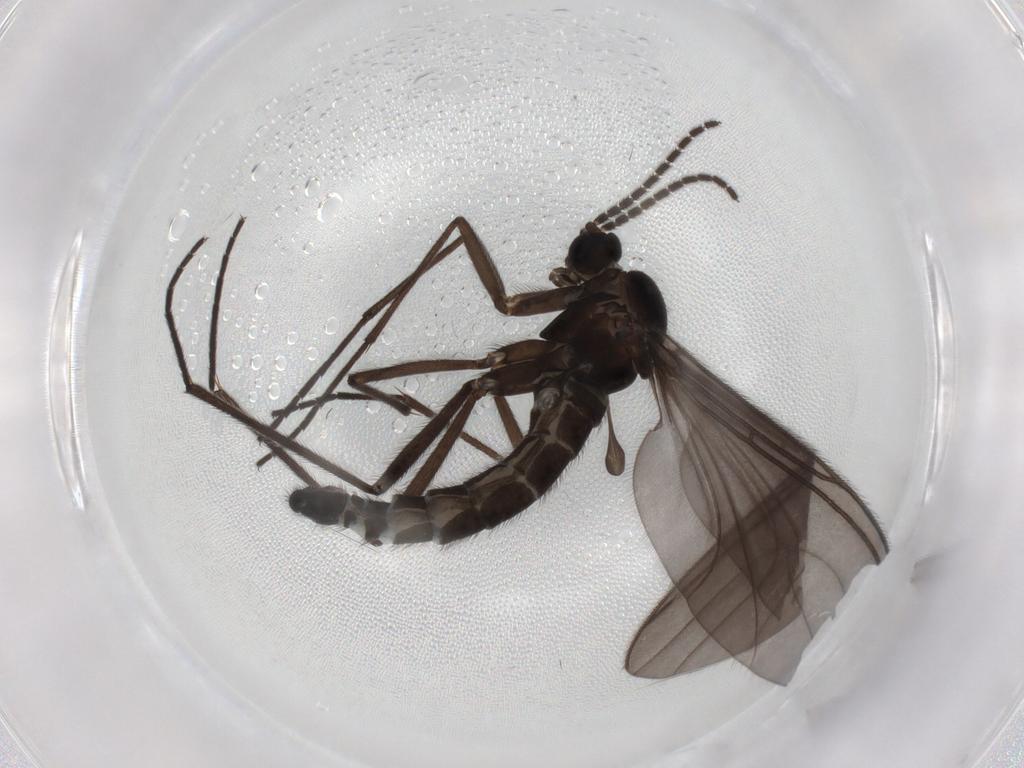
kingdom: Animalia
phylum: Arthropoda
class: Insecta
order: Diptera
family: Sciaridae
